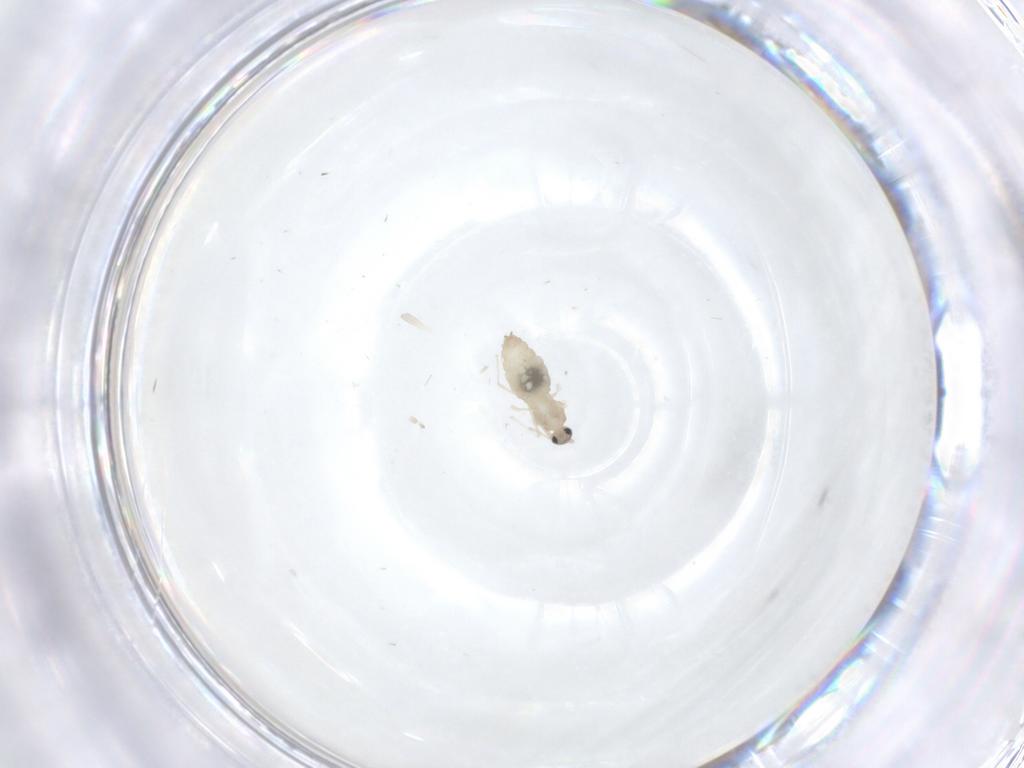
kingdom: Animalia
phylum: Arthropoda
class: Insecta
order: Diptera
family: Cecidomyiidae
